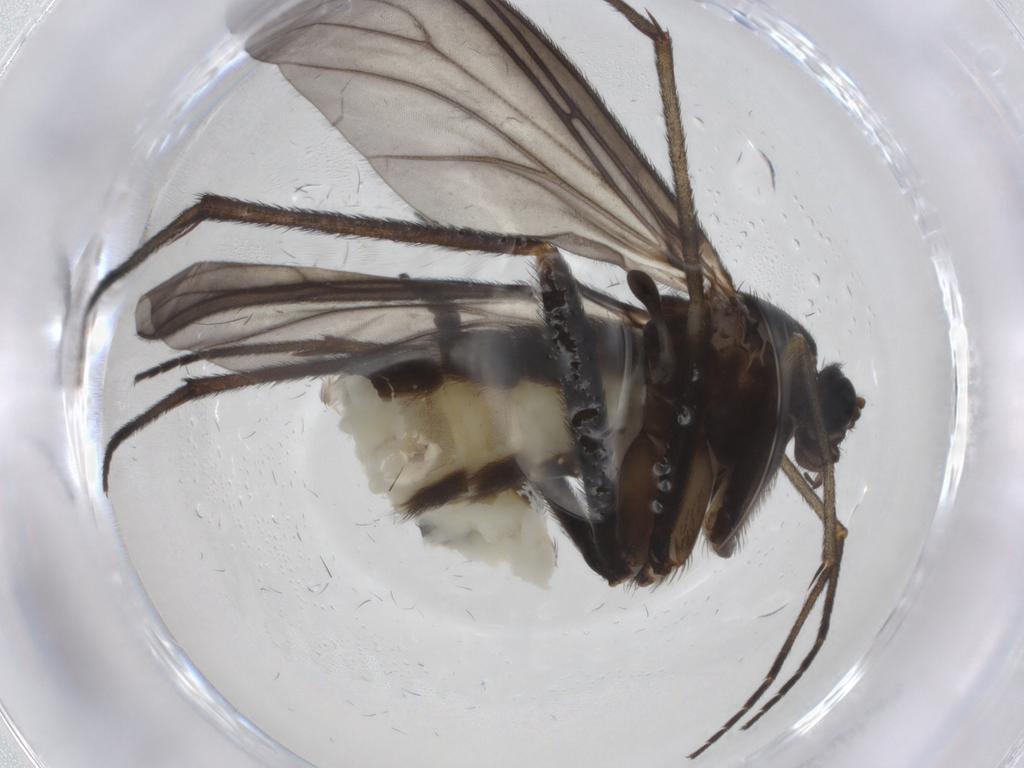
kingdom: Animalia
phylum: Arthropoda
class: Insecta
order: Diptera
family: Sciaridae
